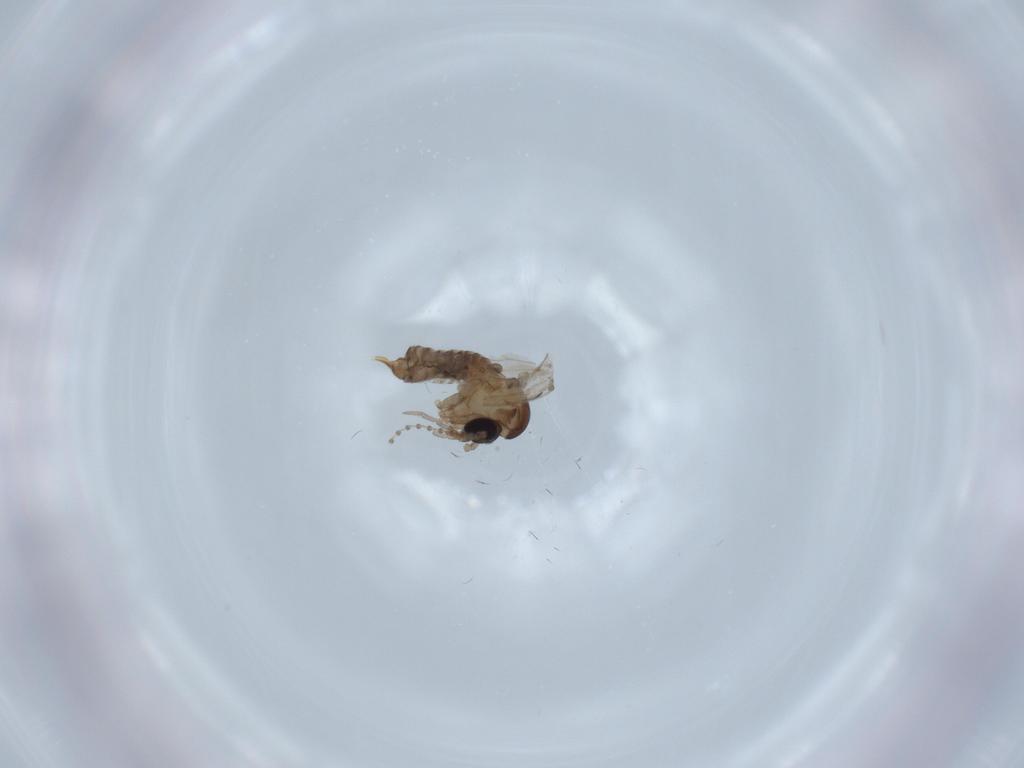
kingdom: Animalia
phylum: Arthropoda
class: Insecta
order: Diptera
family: Psychodidae
